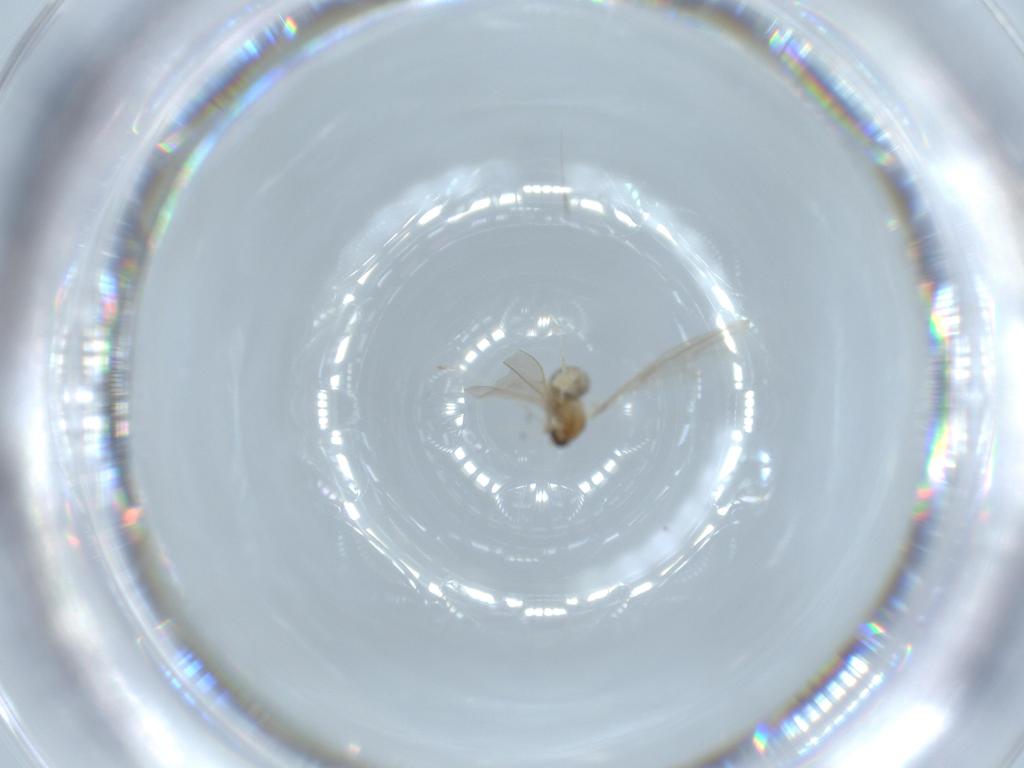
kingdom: Animalia
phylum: Arthropoda
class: Insecta
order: Diptera
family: Cecidomyiidae
